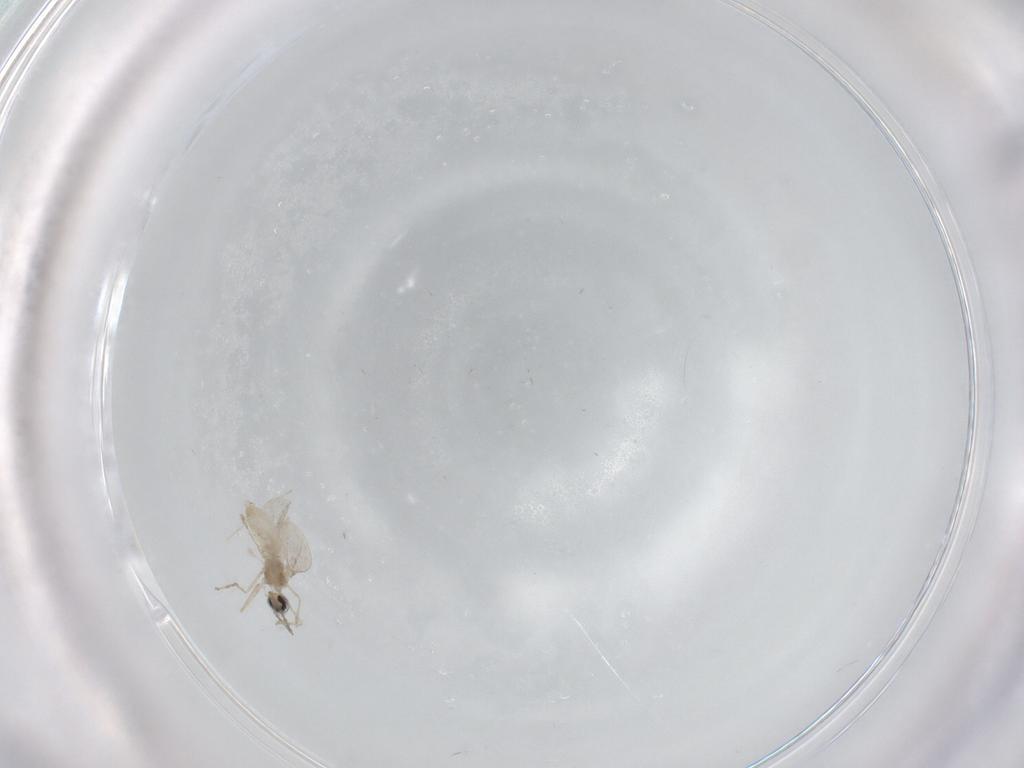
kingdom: Animalia
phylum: Arthropoda
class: Insecta
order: Diptera
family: Cecidomyiidae
